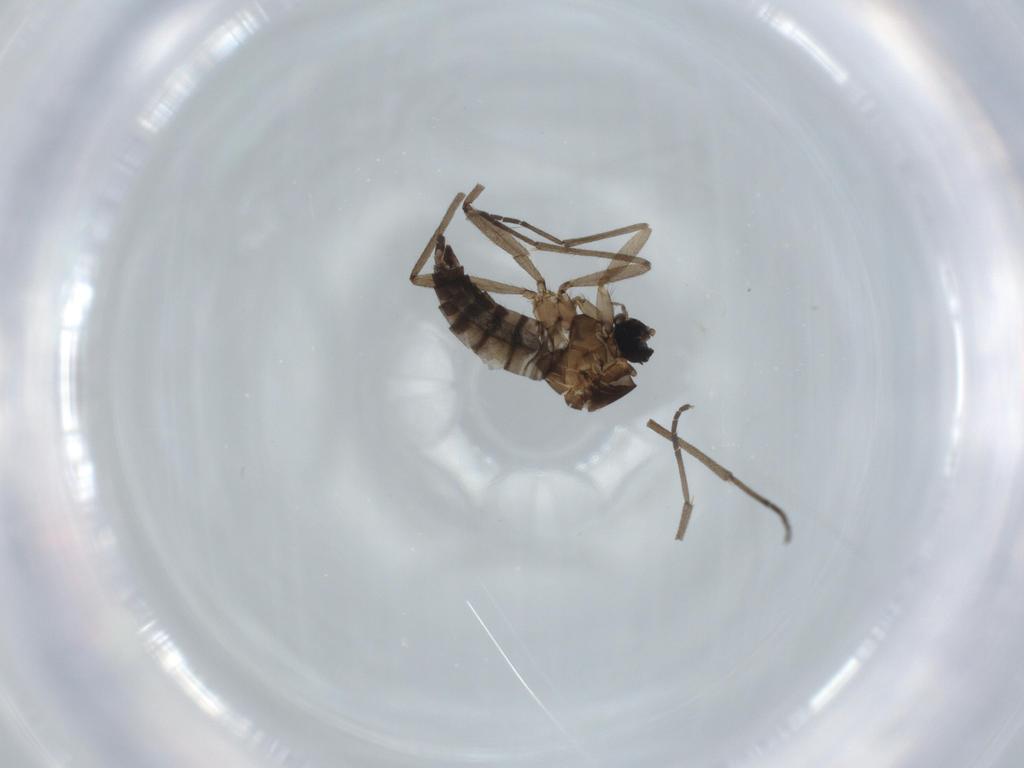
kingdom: Animalia
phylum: Arthropoda
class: Insecta
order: Diptera
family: Sciaridae
